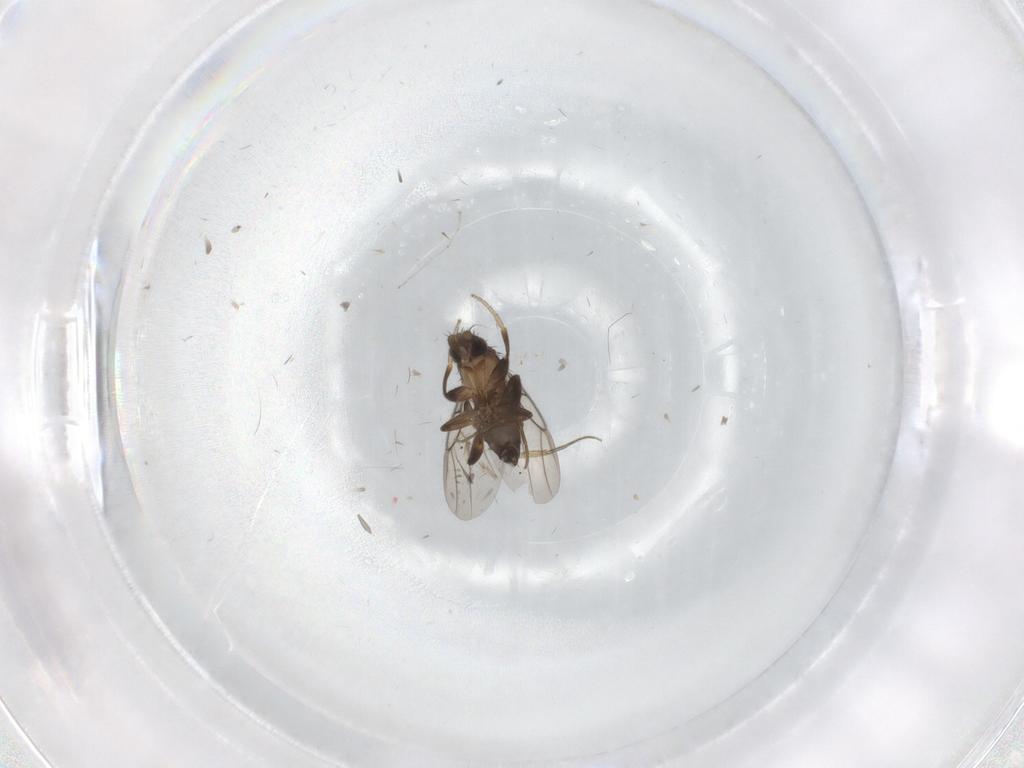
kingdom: Animalia
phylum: Arthropoda
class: Insecta
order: Diptera
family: Phoridae
